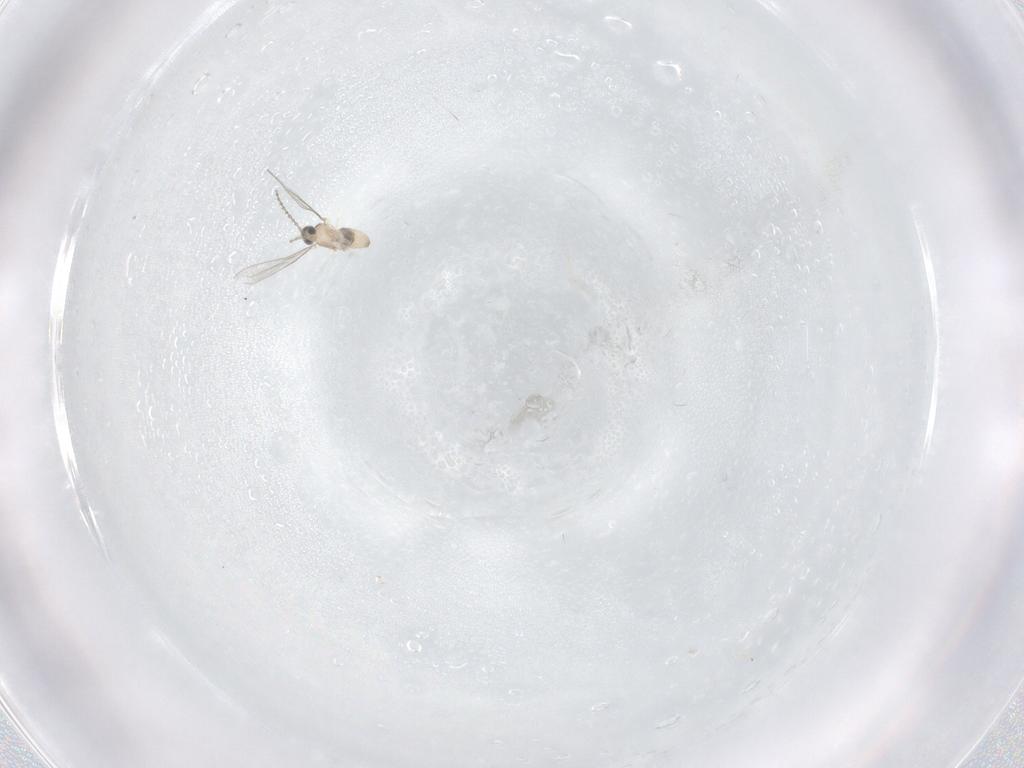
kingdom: Animalia
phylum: Arthropoda
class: Insecta
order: Diptera
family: Cecidomyiidae
